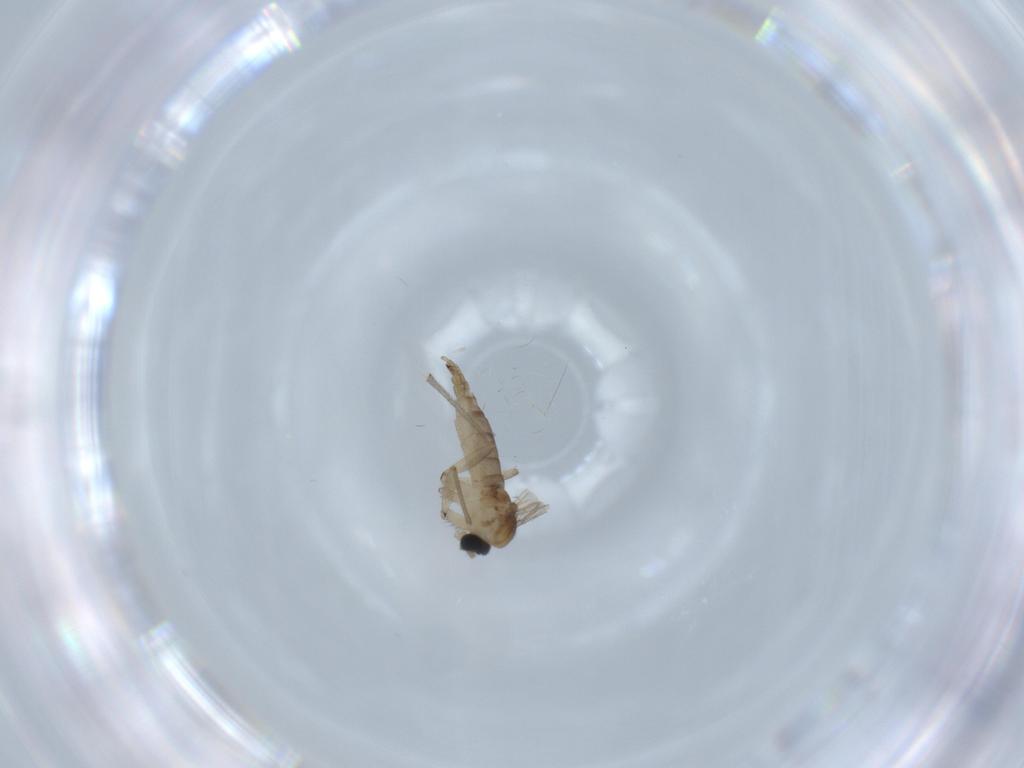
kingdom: Animalia
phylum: Arthropoda
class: Insecta
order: Diptera
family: Sciaridae
